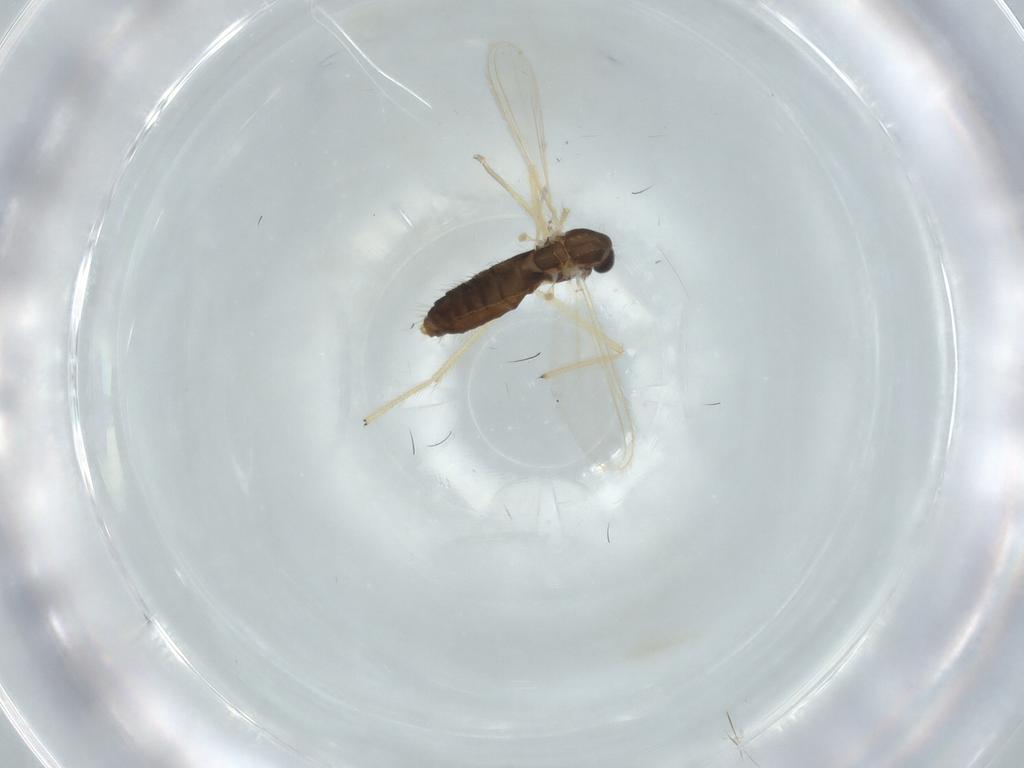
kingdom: Animalia
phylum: Arthropoda
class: Insecta
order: Diptera
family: Chironomidae
